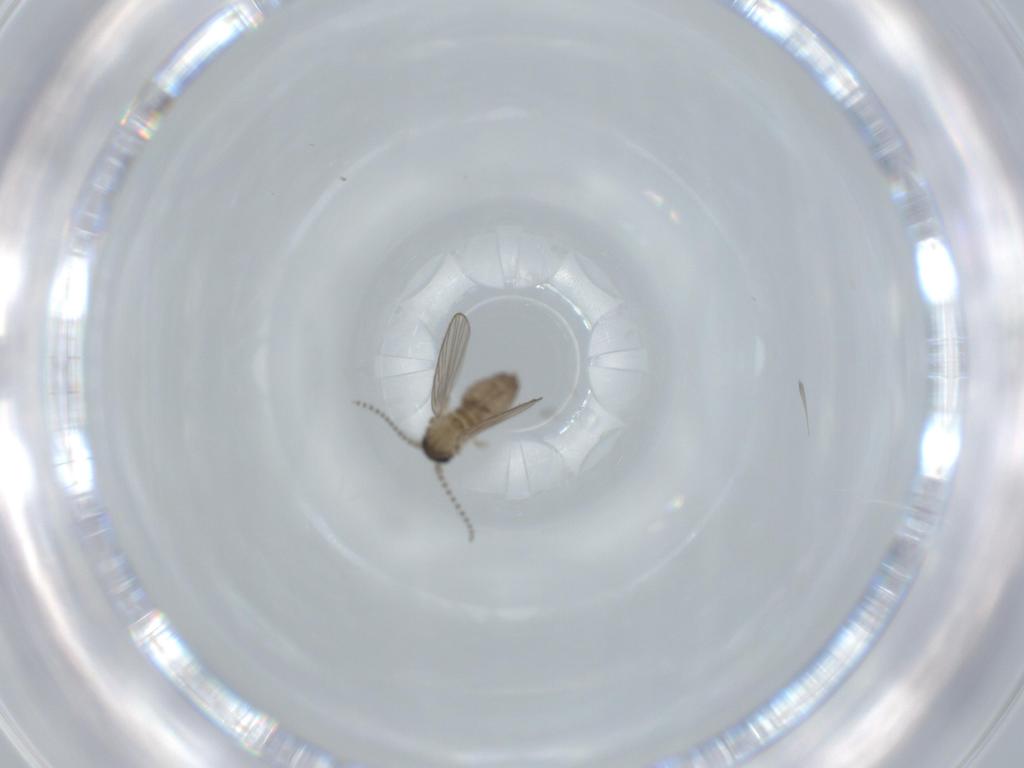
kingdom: Animalia
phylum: Arthropoda
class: Insecta
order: Diptera
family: Psychodidae
